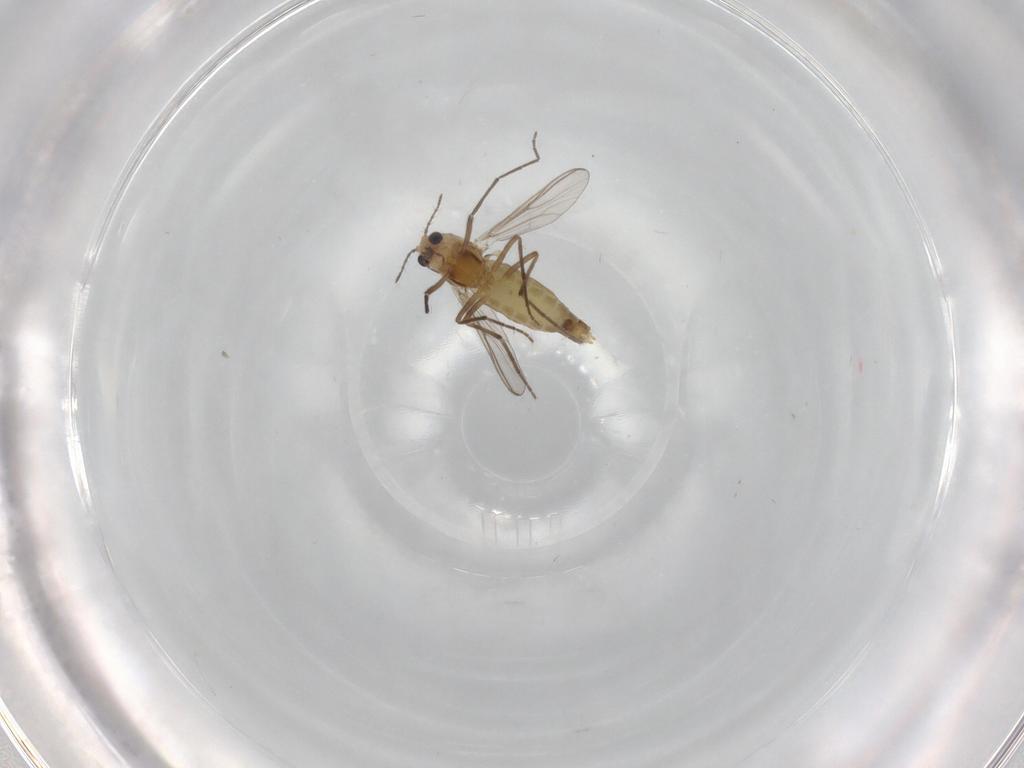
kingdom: Animalia
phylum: Arthropoda
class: Insecta
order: Diptera
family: Chironomidae
